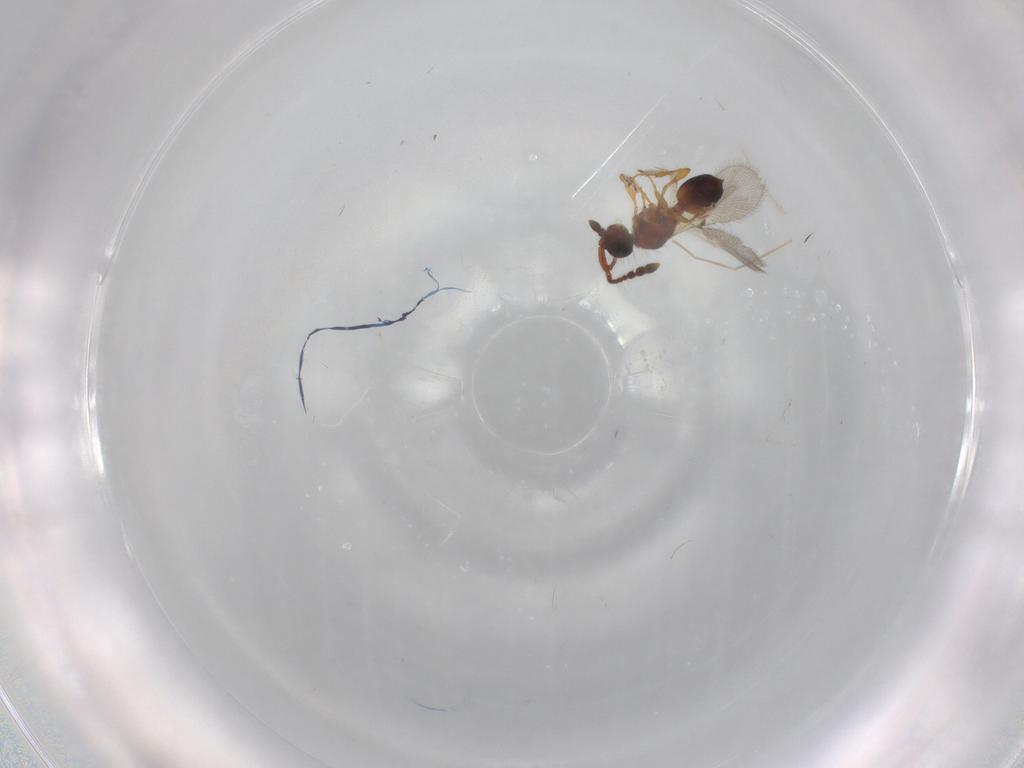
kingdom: Animalia
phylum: Arthropoda
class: Insecta
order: Hymenoptera
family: Diapriidae
